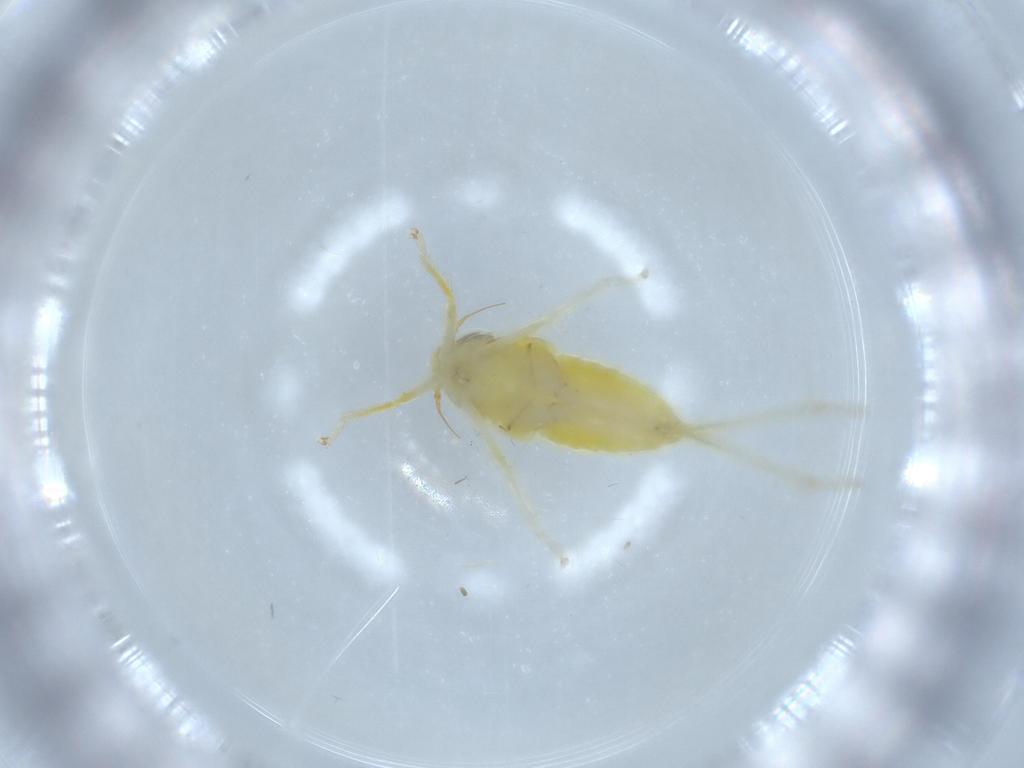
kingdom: Animalia
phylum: Arthropoda
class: Insecta
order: Hemiptera
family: Cicadellidae
